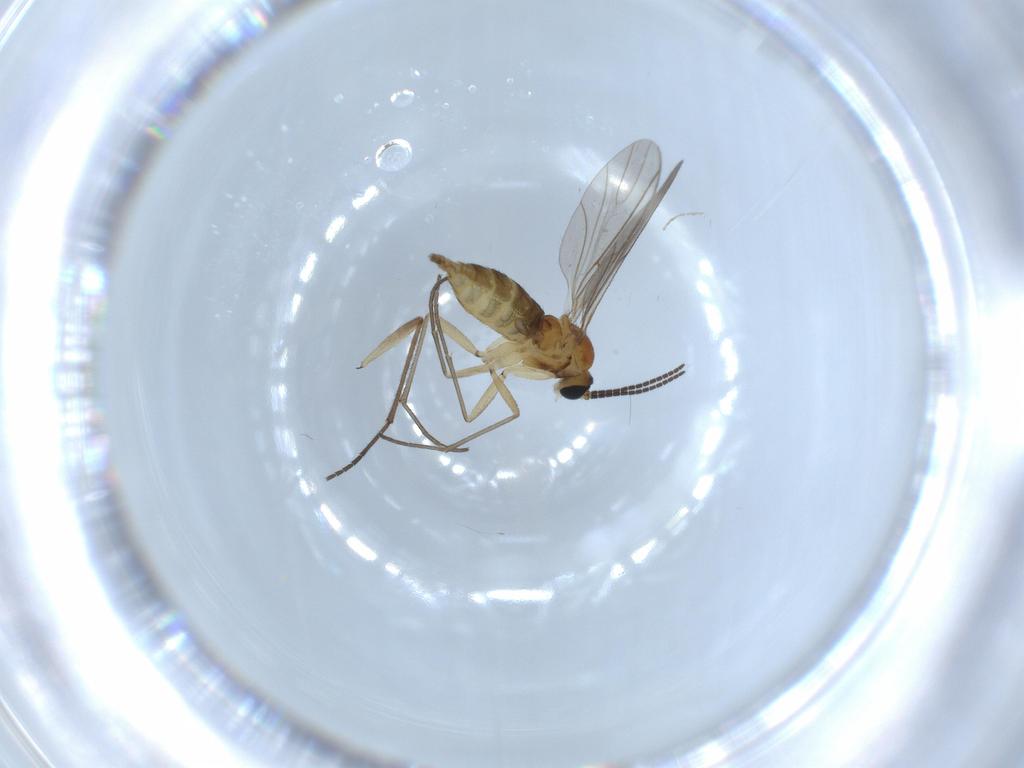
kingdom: Animalia
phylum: Arthropoda
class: Insecta
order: Diptera
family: Sciaridae
